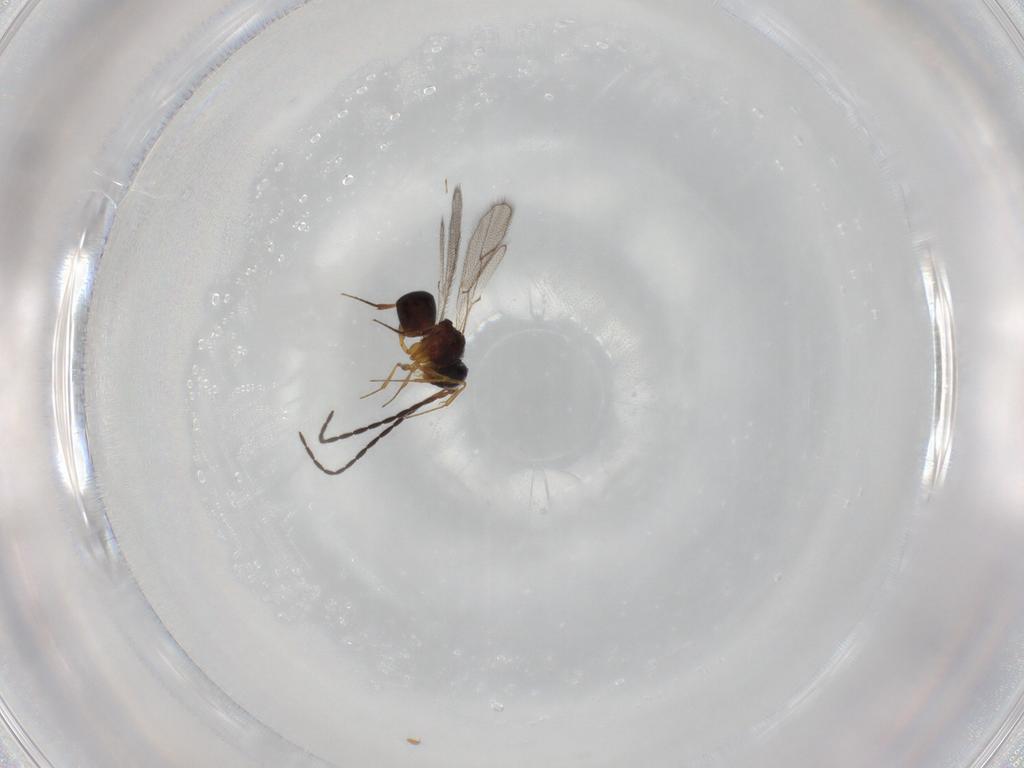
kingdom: Animalia
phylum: Arthropoda
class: Insecta
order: Hymenoptera
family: Figitidae
